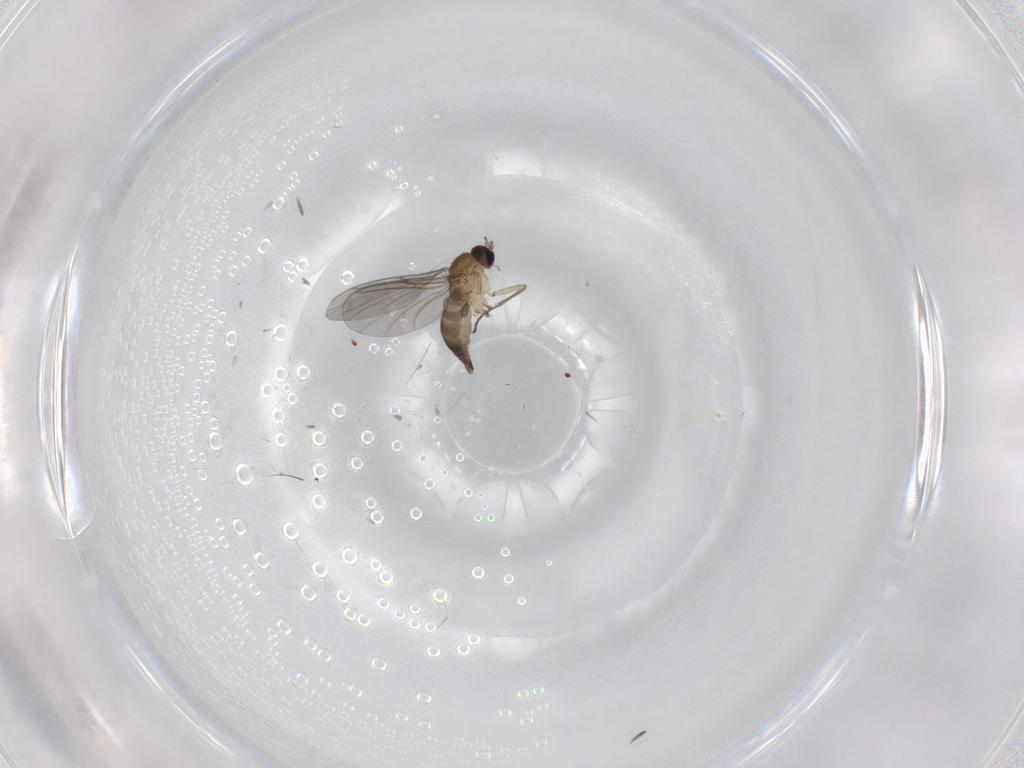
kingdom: Animalia
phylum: Arthropoda
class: Insecta
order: Diptera
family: Sciaridae
